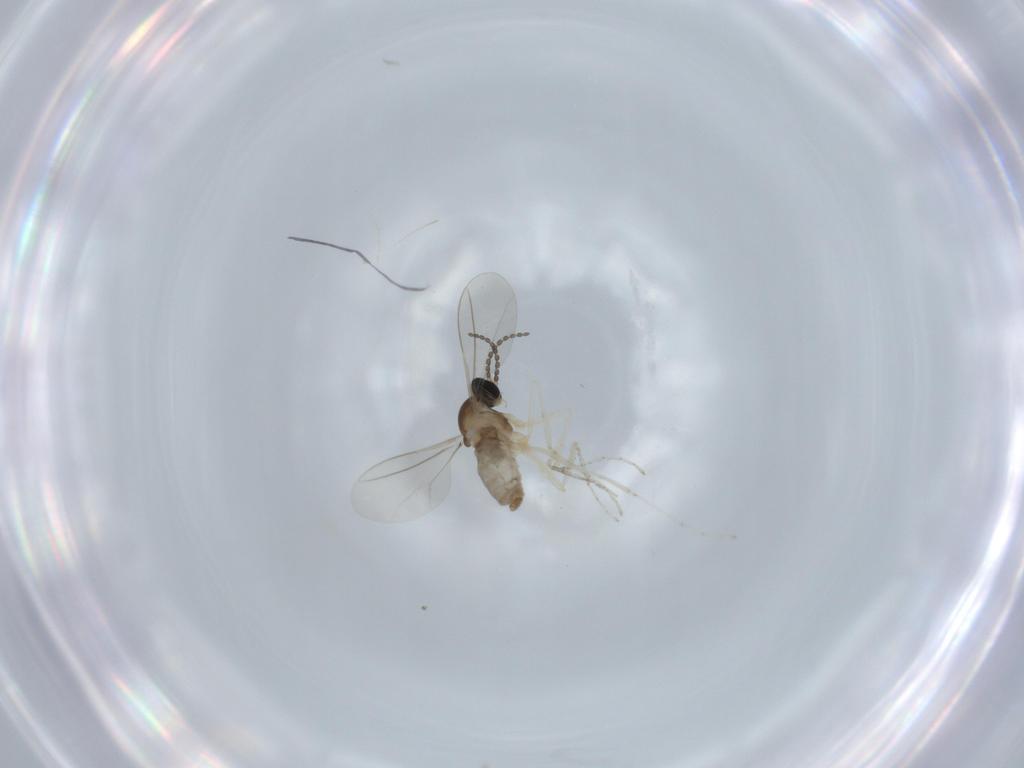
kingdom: Animalia
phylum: Arthropoda
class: Insecta
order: Diptera
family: Cecidomyiidae
